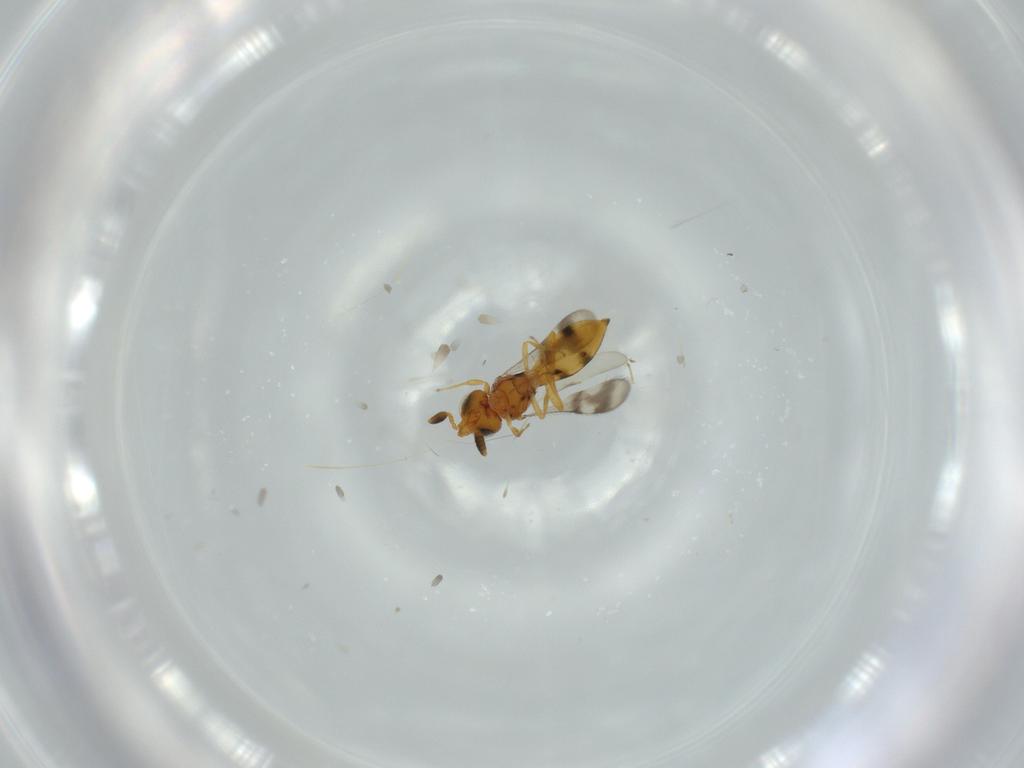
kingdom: Animalia
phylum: Arthropoda
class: Insecta
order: Hymenoptera
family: Scelionidae
